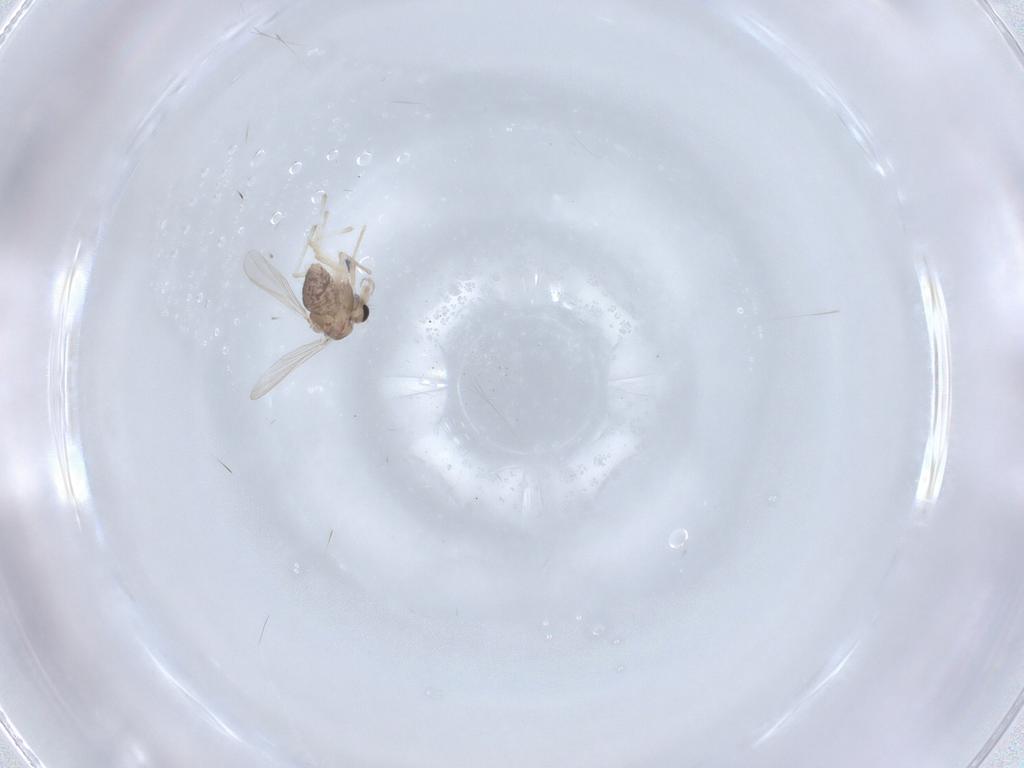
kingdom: Animalia
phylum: Arthropoda
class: Insecta
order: Diptera
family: Chironomidae
